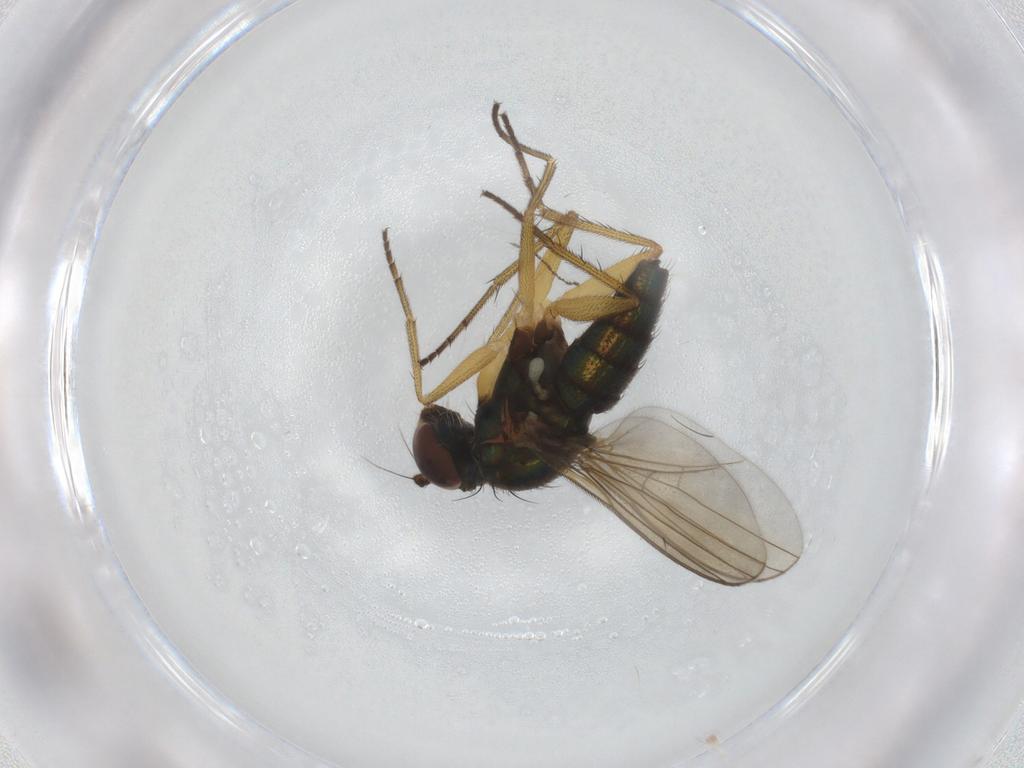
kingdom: Animalia
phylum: Arthropoda
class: Insecta
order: Diptera
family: Dolichopodidae
